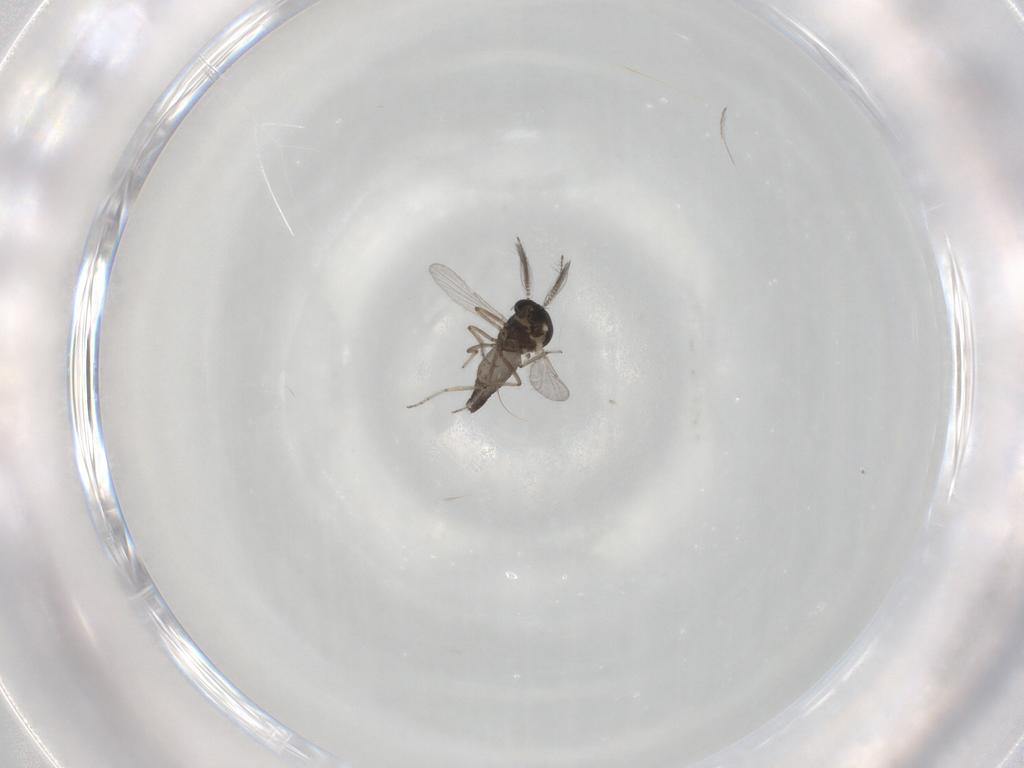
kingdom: Animalia
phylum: Arthropoda
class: Insecta
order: Diptera
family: Ceratopogonidae
